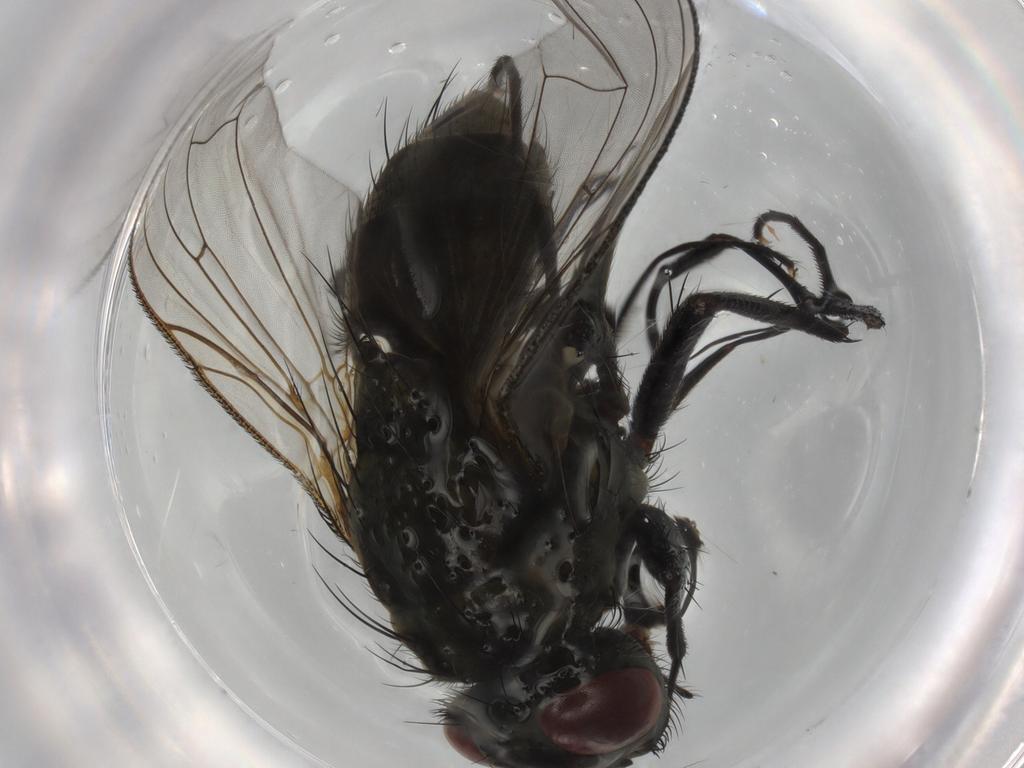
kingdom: Animalia
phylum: Arthropoda
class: Insecta
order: Diptera
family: Muscidae
